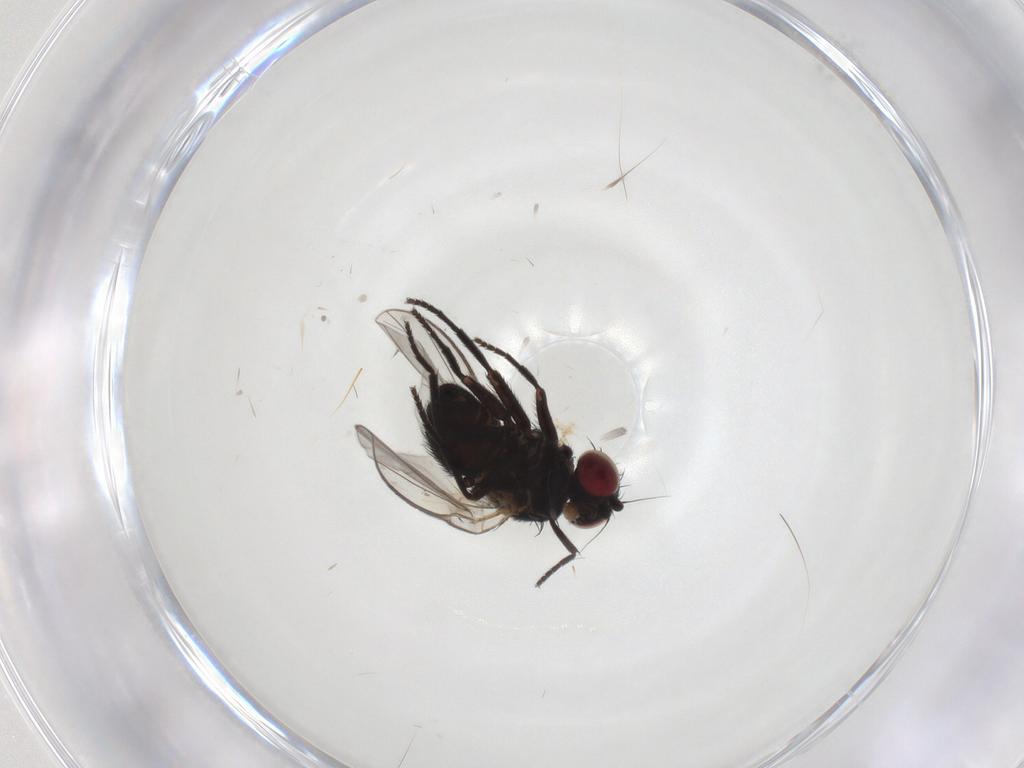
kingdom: Animalia
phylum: Arthropoda
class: Insecta
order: Diptera
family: Agromyzidae
